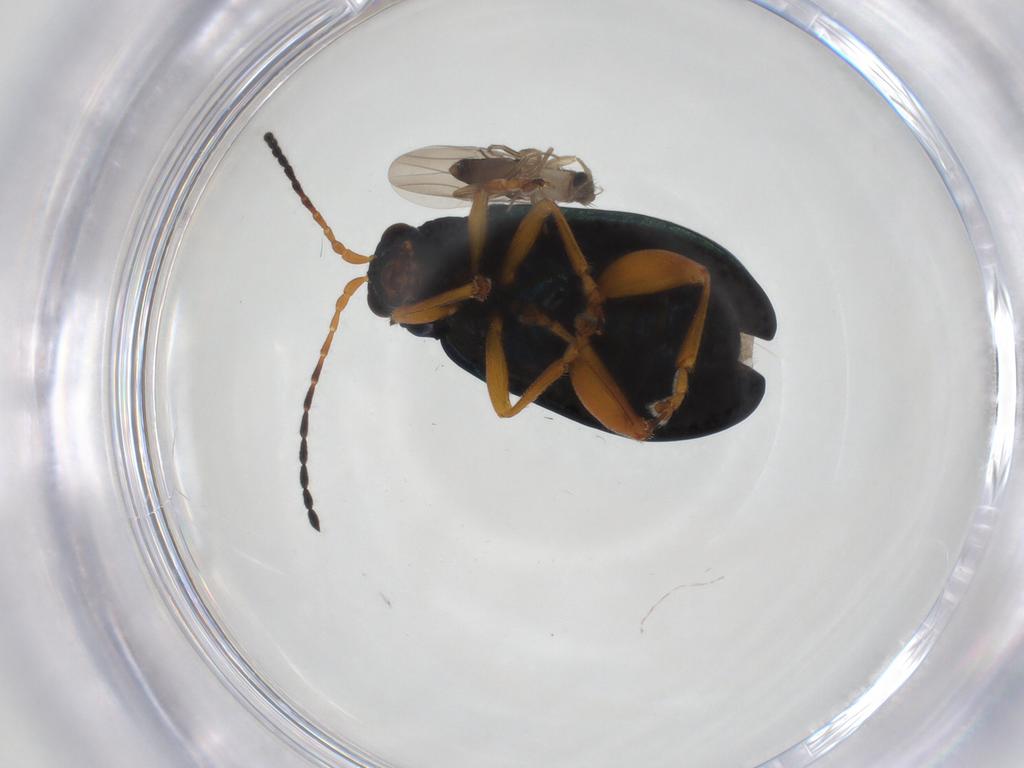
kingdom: Animalia
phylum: Arthropoda
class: Insecta
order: Coleoptera
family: Chrysomelidae
